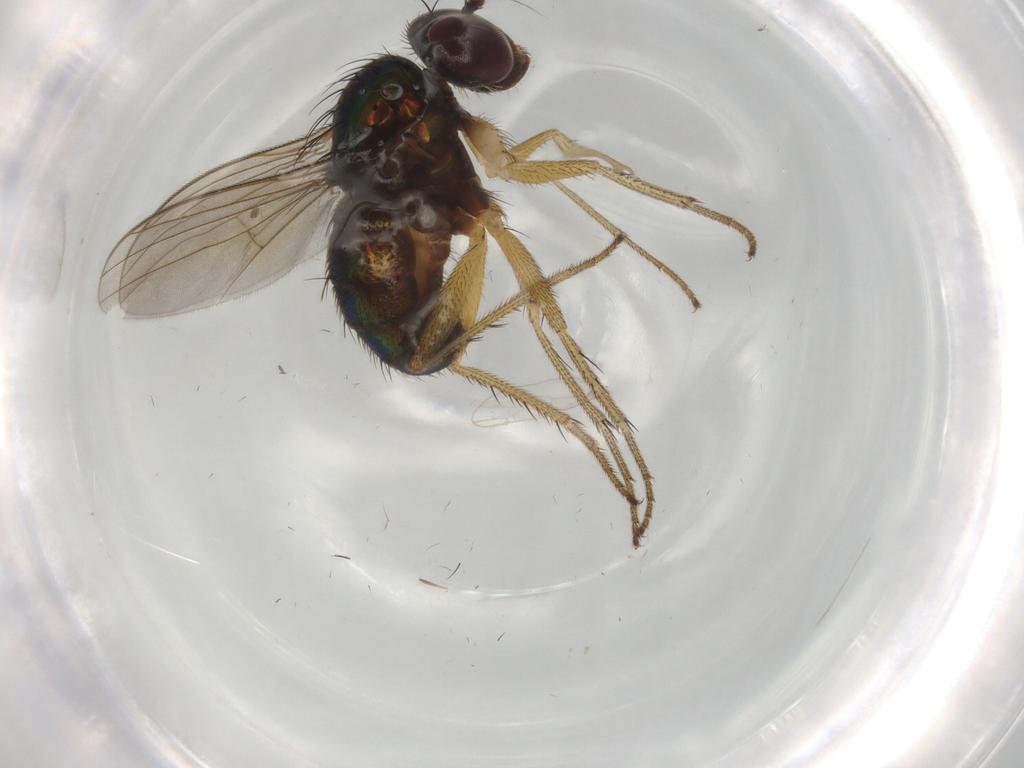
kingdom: Animalia
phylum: Arthropoda
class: Insecta
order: Diptera
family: Dolichopodidae
